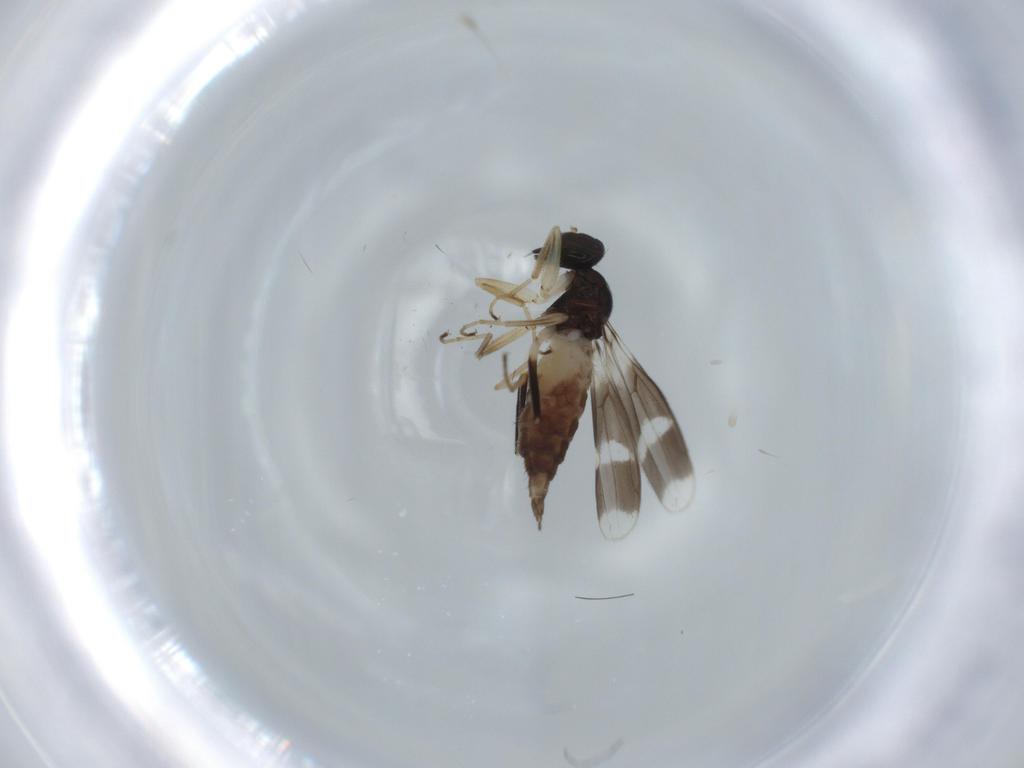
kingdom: Animalia
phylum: Arthropoda
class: Insecta
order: Diptera
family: Hybotidae
